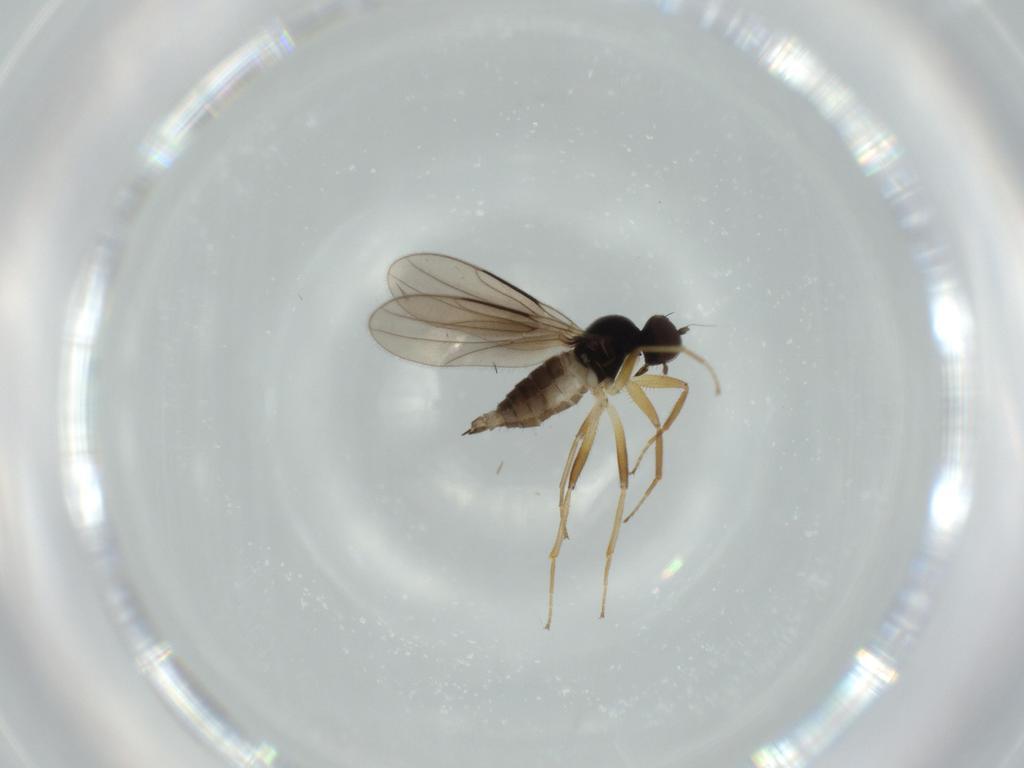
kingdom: Animalia
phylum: Arthropoda
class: Insecta
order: Diptera
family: Hybotidae
